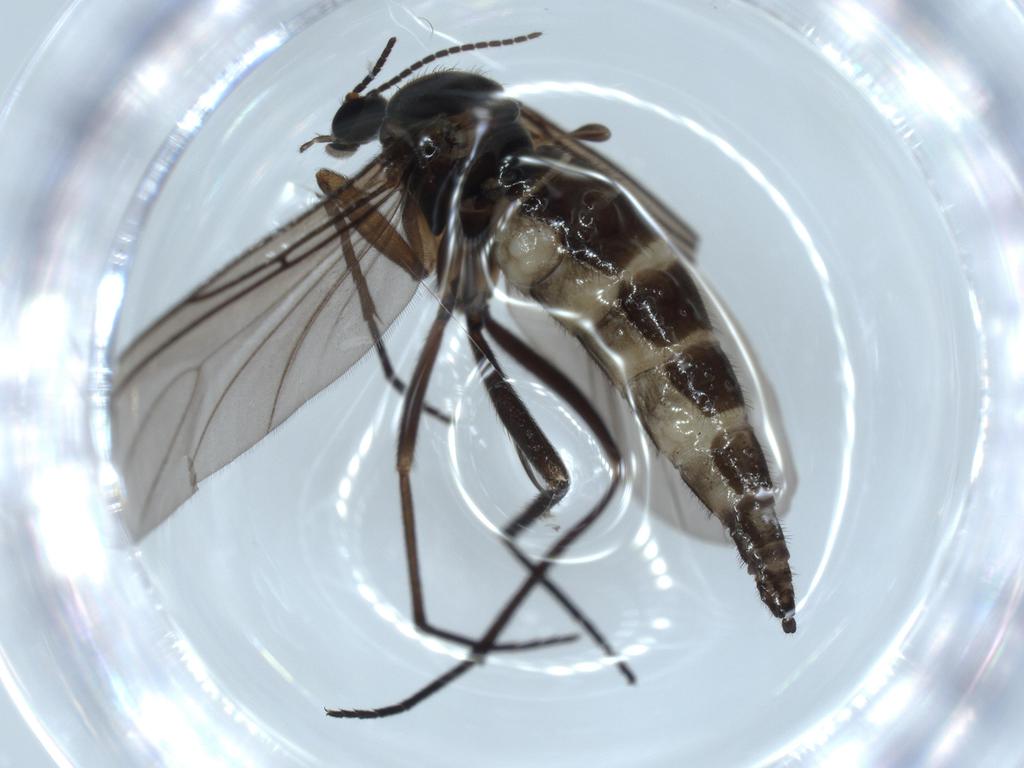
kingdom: Animalia
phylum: Arthropoda
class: Insecta
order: Diptera
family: Sciaridae
